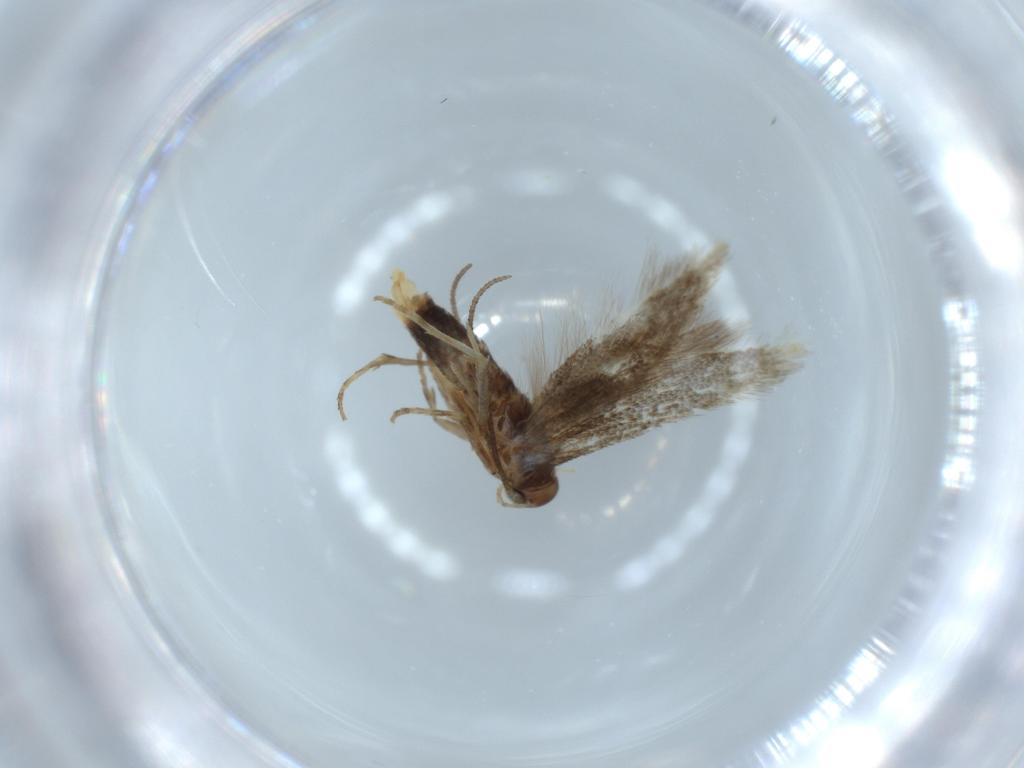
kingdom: Animalia
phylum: Arthropoda
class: Insecta
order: Lepidoptera
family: Elachistidae
